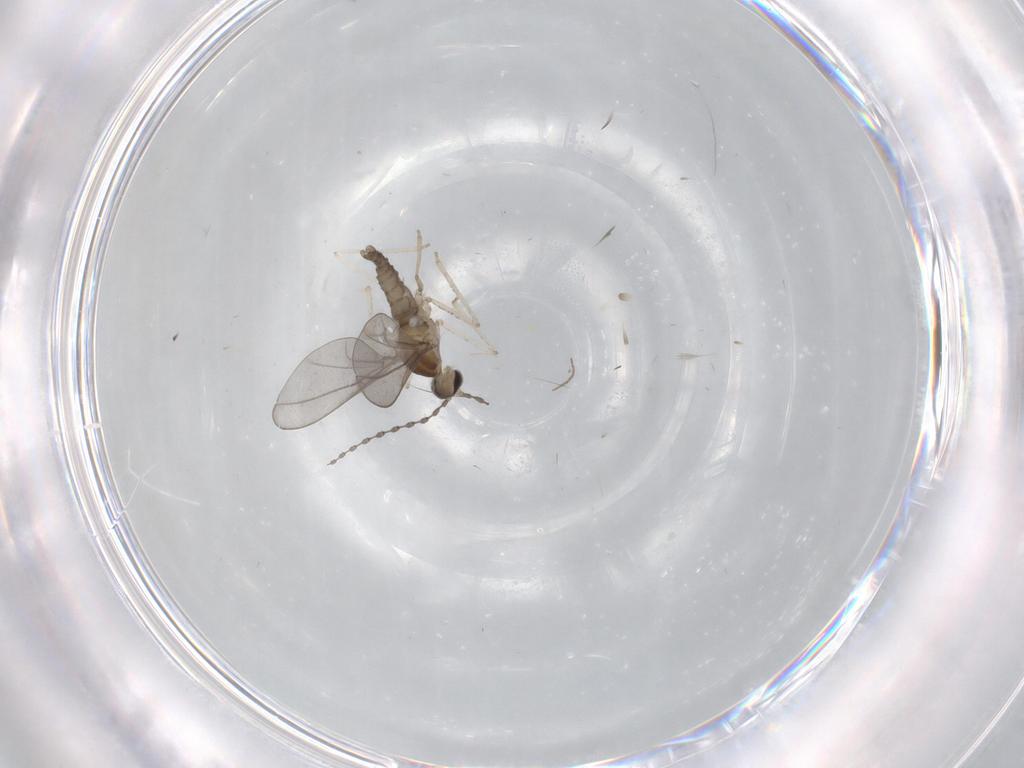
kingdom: Animalia
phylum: Arthropoda
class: Insecta
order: Diptera
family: Cecidomyiidae
